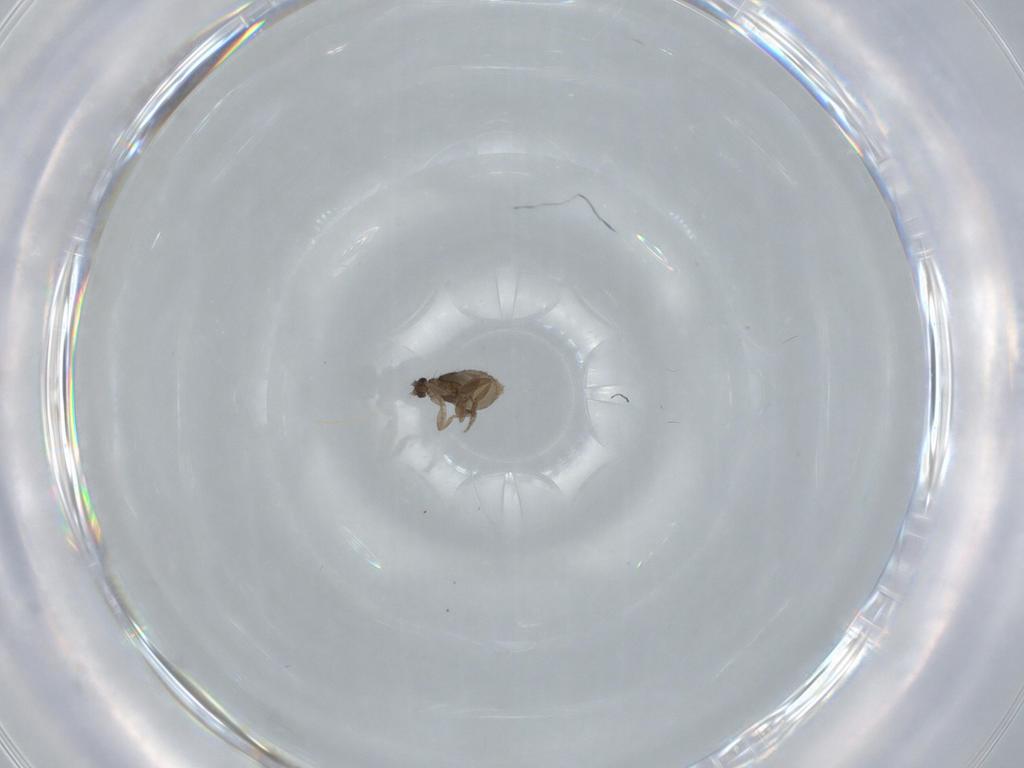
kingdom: Animalia
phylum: Arthropoda
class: Insecta
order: Diptera
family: Phoridae
